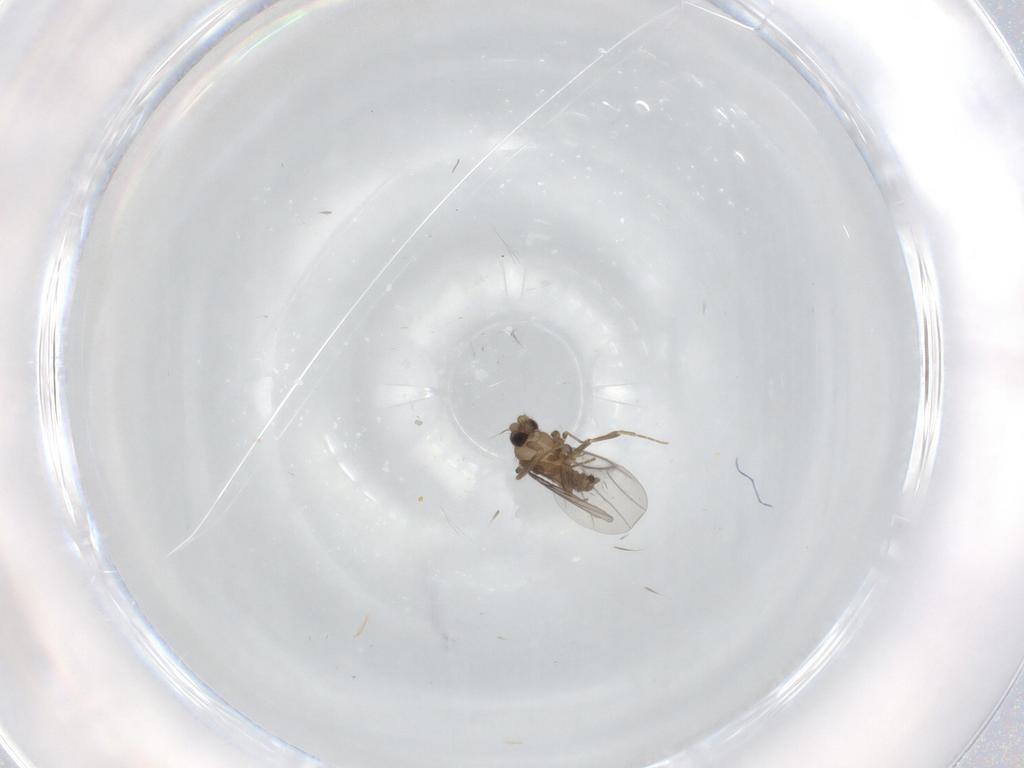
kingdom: Animalia
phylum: Arthropoda
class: Insecta
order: Diptera
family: Sciaridae
